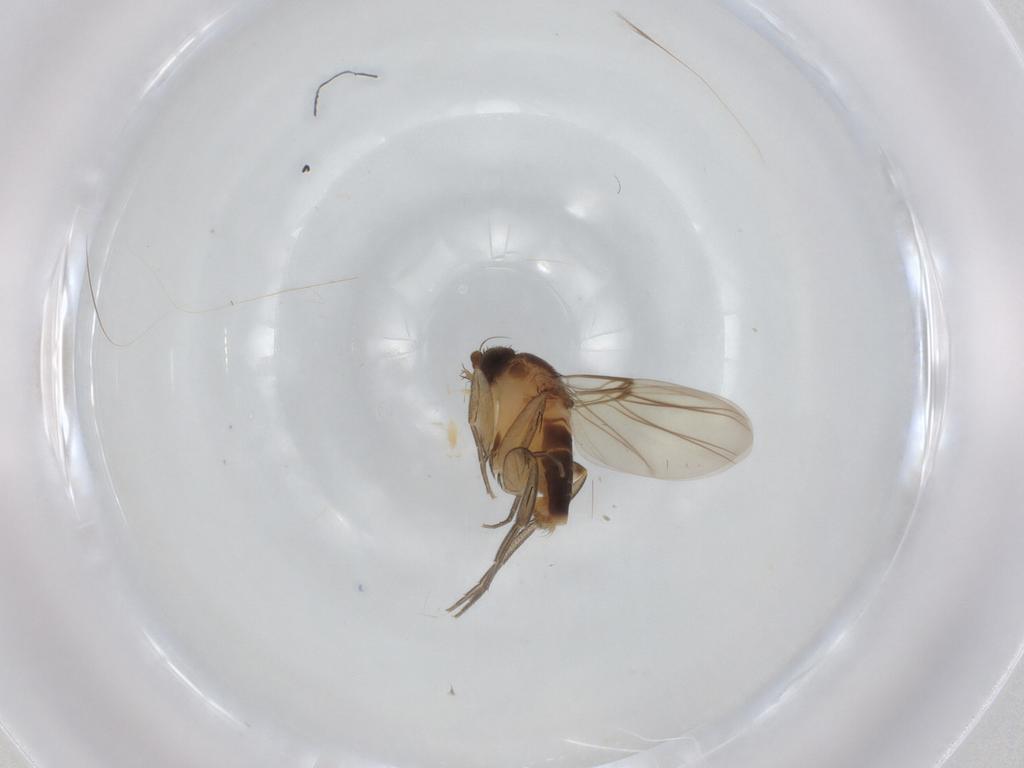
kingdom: Animalia
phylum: Arthropoda
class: Insecta
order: Diptera
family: Phoridae
